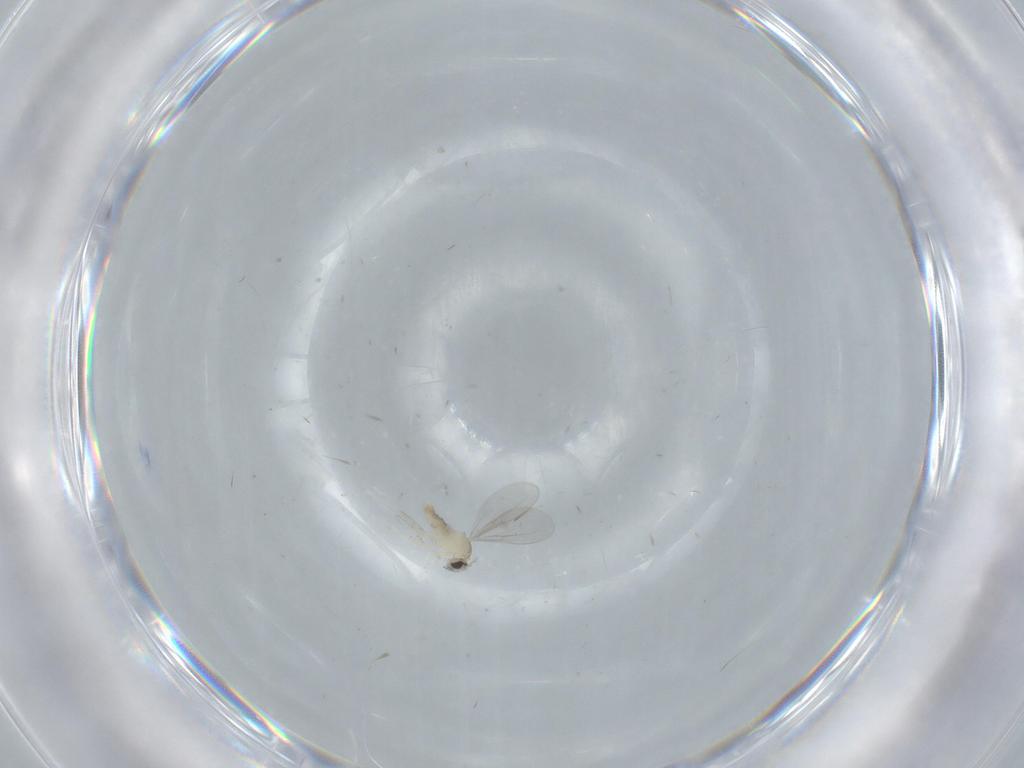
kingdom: Animalia
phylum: Arthropoda
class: Insecta
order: Diptera
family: Cecidomyiidae
